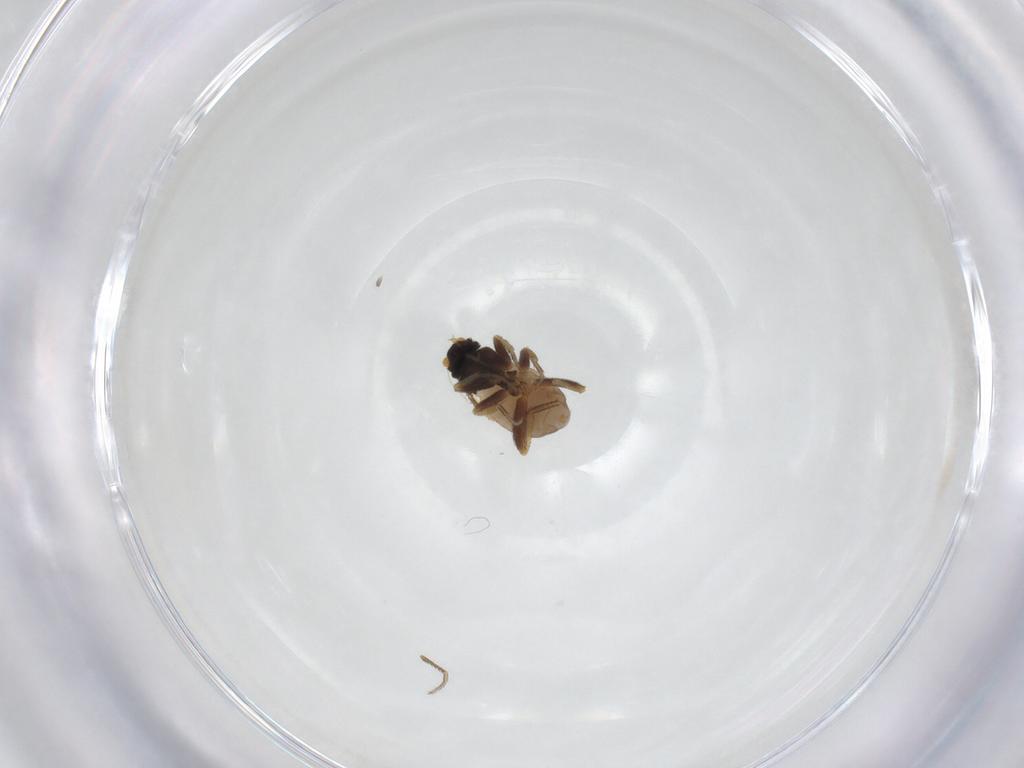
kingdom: Animalia
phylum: Arthropoda
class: Insecta
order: Diptera
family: Phoridae
